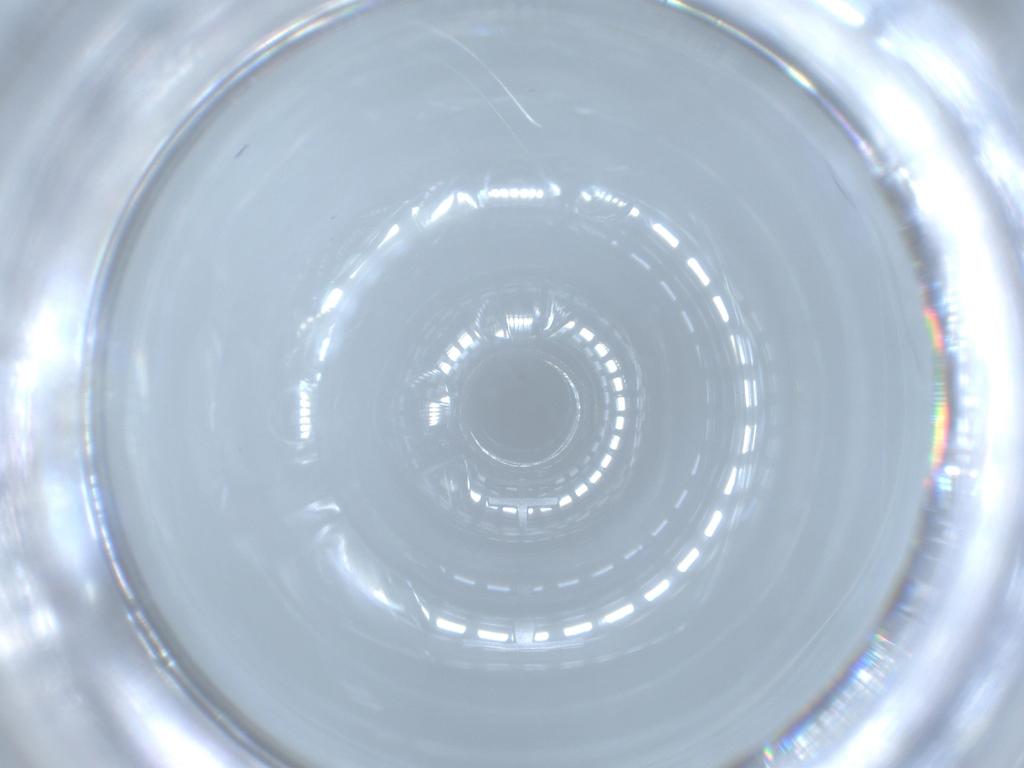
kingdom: Animalia
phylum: Arthropoda
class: Insecta
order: Diptera
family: Cecidomyiidae
